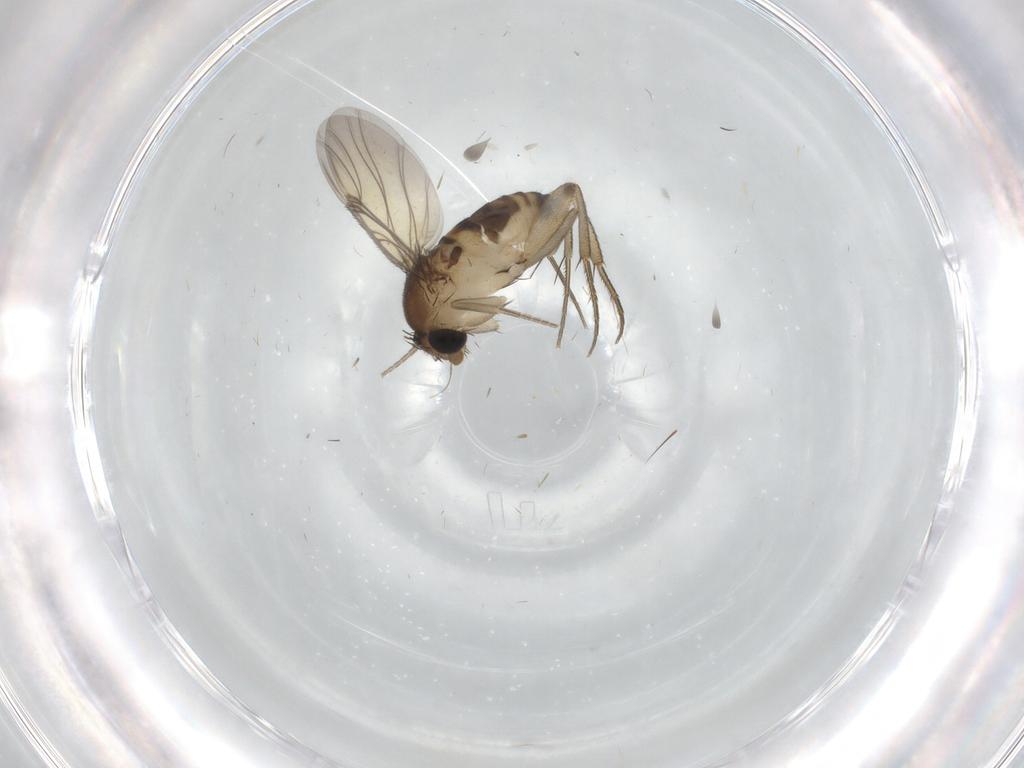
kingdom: Animalia
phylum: Arthropoda
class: Insecta
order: Diptera
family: Phoridae
